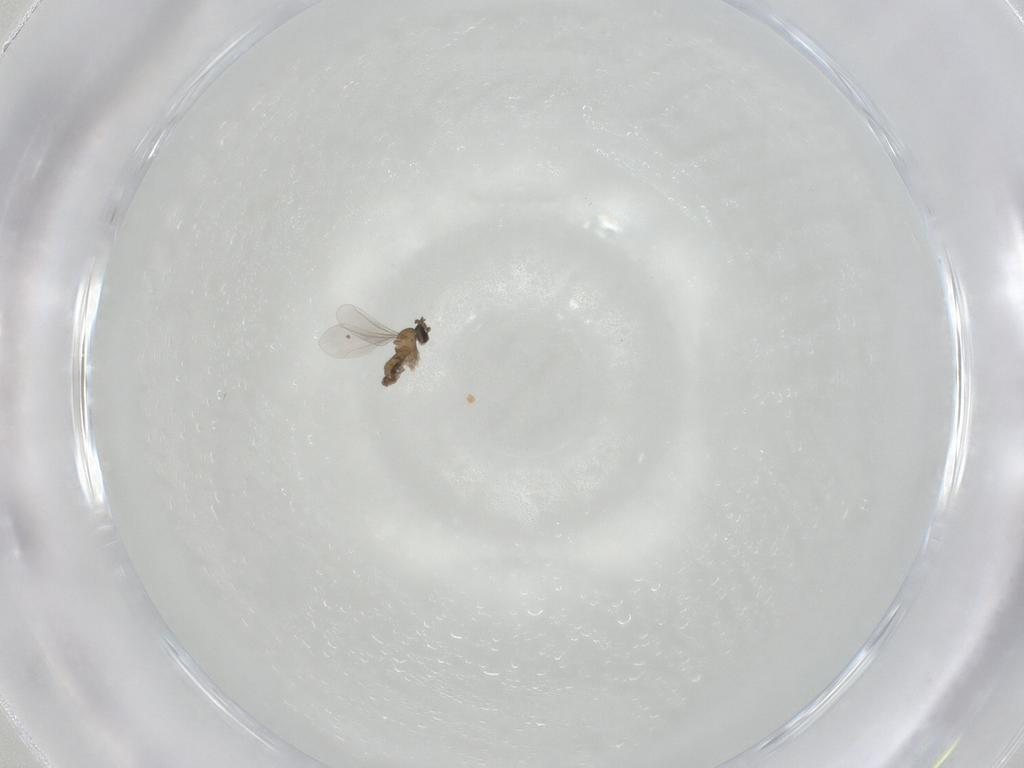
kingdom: Animalia
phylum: Arthropoda
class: Insecta
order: Diptera
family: Cecidomyiidae
